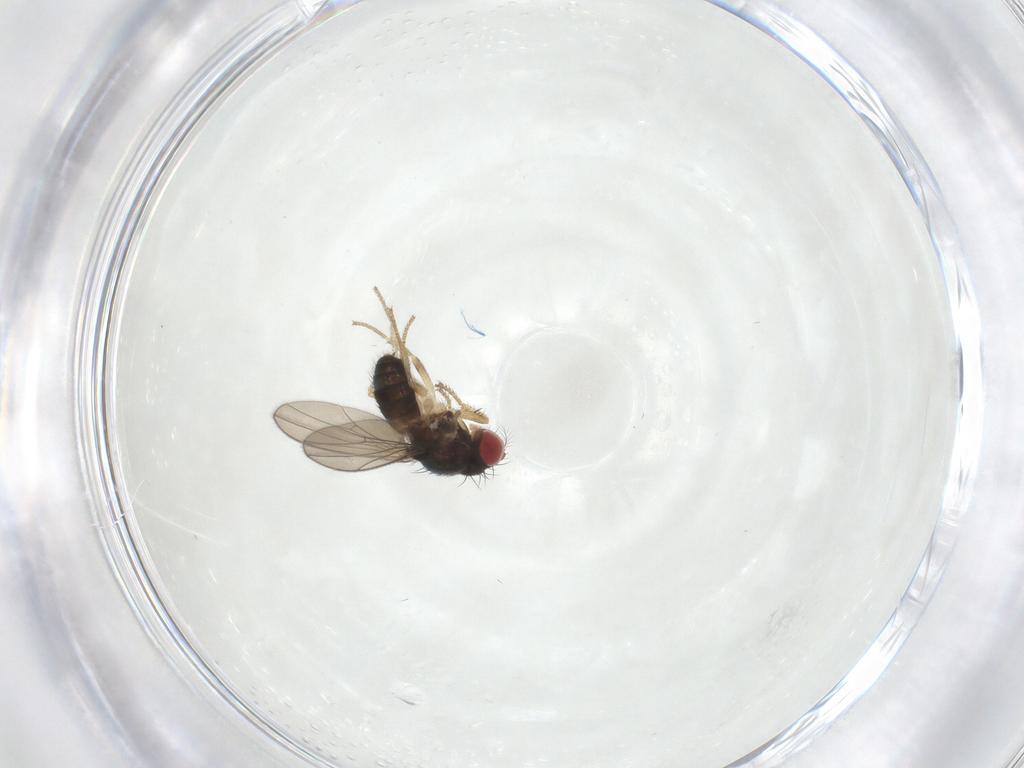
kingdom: Animalia
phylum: Arthropoda
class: Insecta
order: Diptera
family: Drosophilidae
